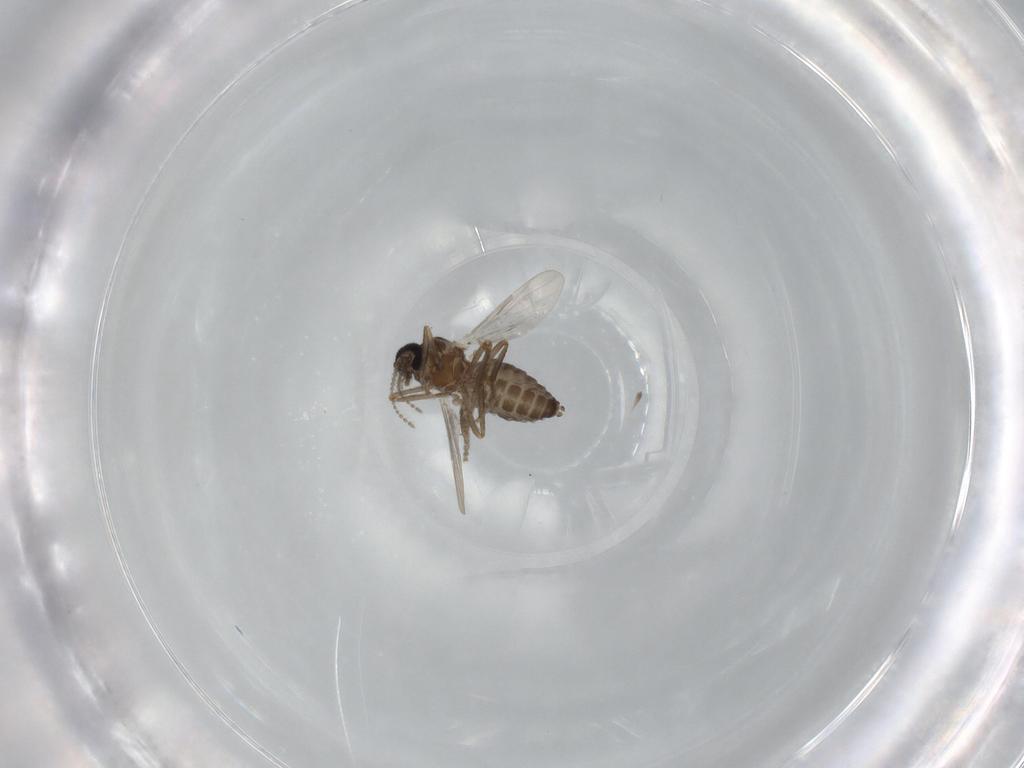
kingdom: Animalia
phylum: Arthropoda
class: Insecta
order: Diptera
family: Ceratopogonidae
